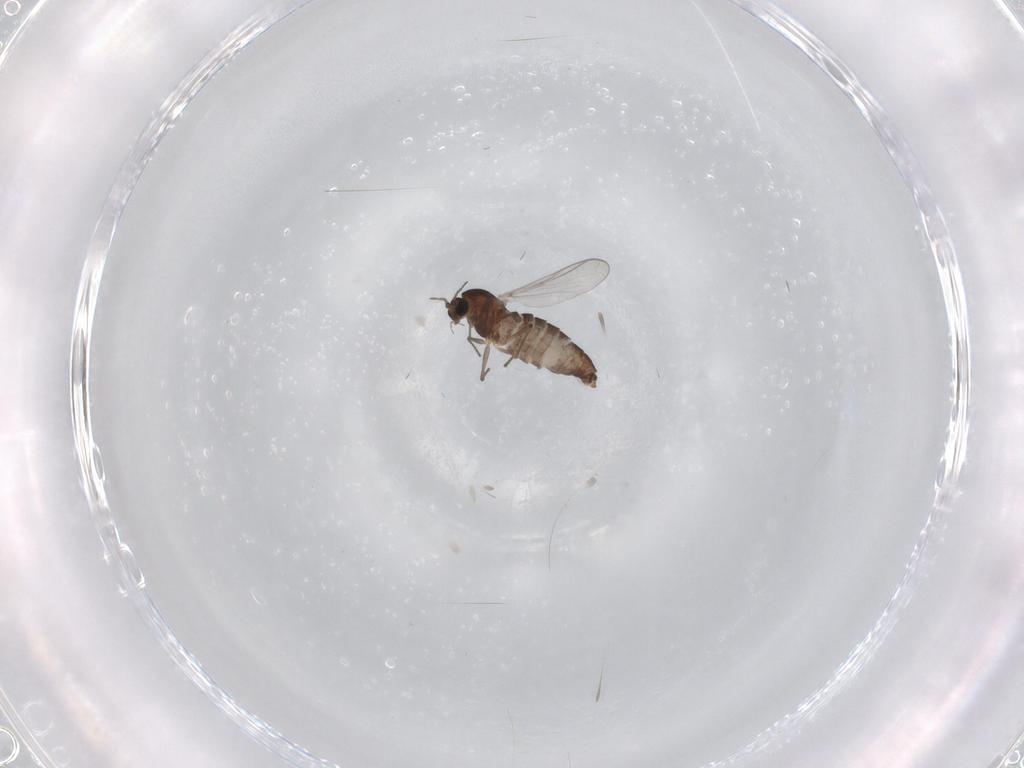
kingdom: Animalia
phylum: Arthropoda
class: Insecta
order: Diptera
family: Chironomidae
